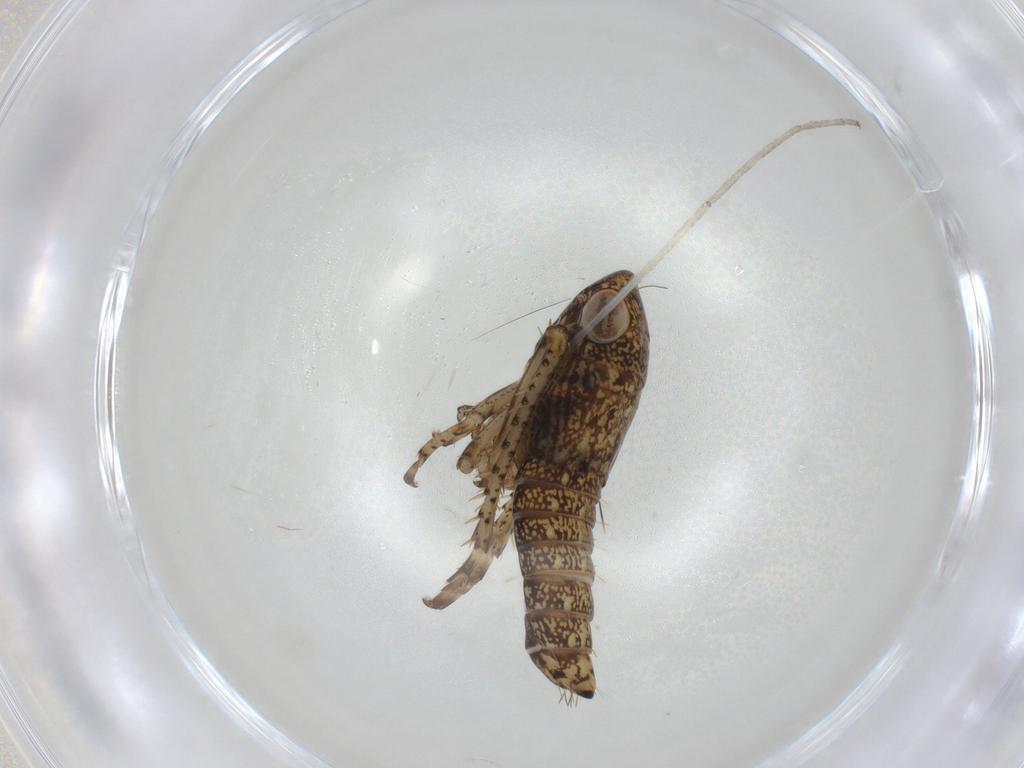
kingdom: Animalia
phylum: Arthropoda
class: Insecta
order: Hemiptera
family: Cicadellidae
